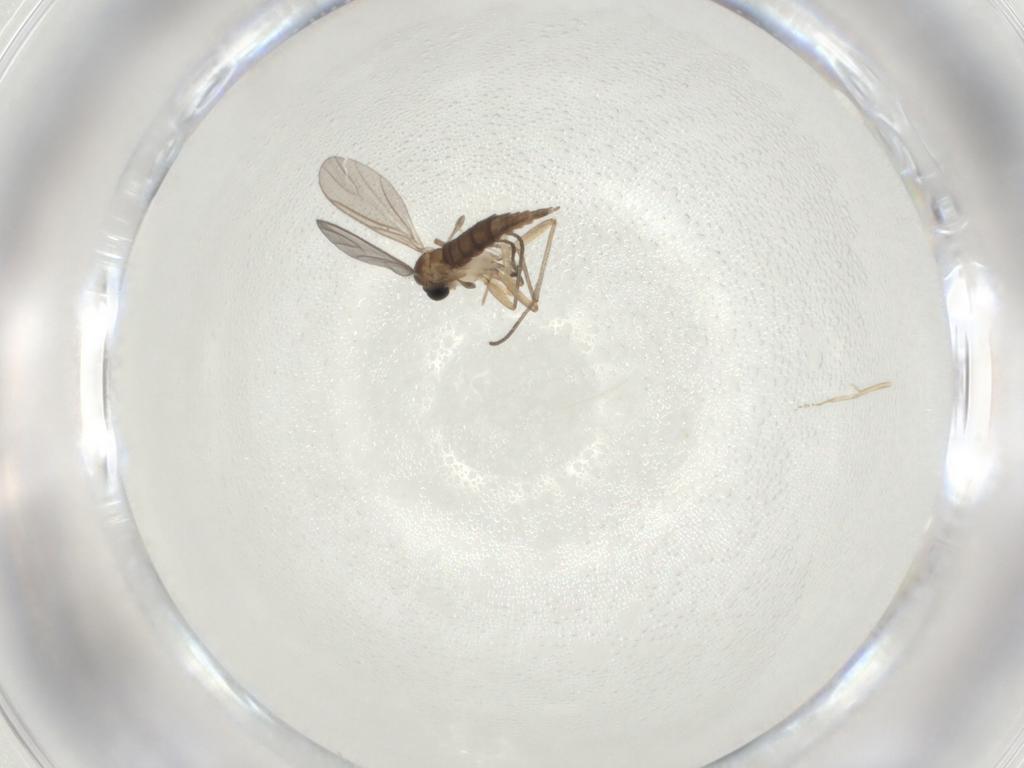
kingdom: Animalia
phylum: Arthropoda
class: Insecta
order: Diptera
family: Sciaridae
